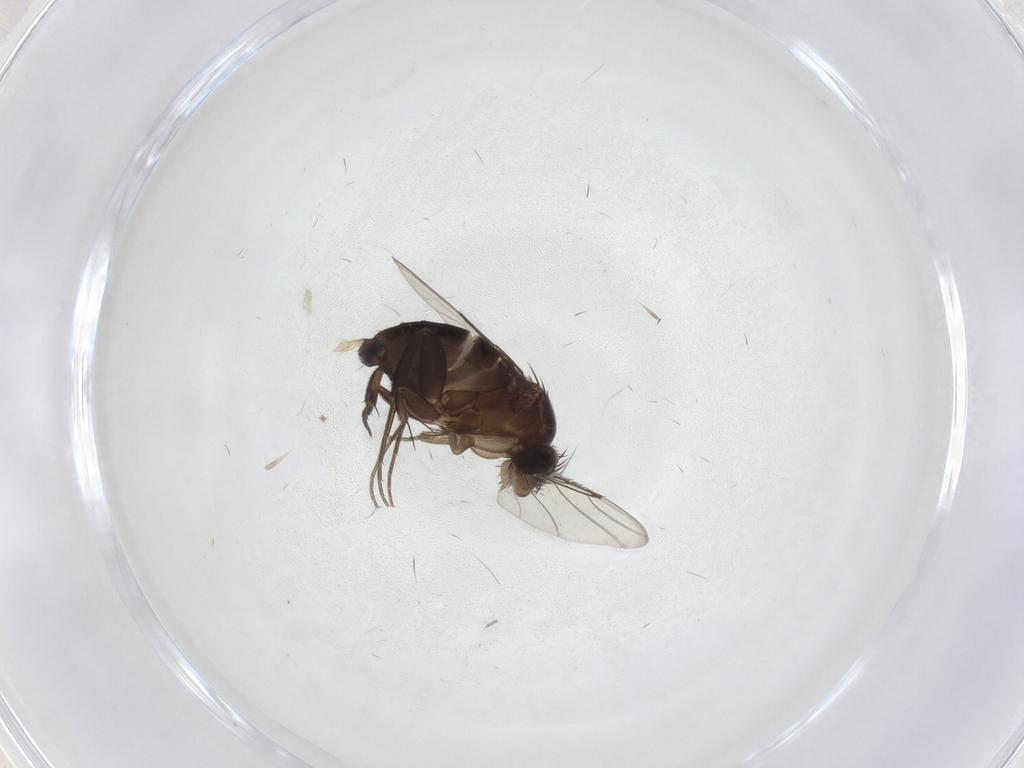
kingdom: Animalia
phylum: Arthropoda
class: Insecta
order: Diptera
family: Phoridae
